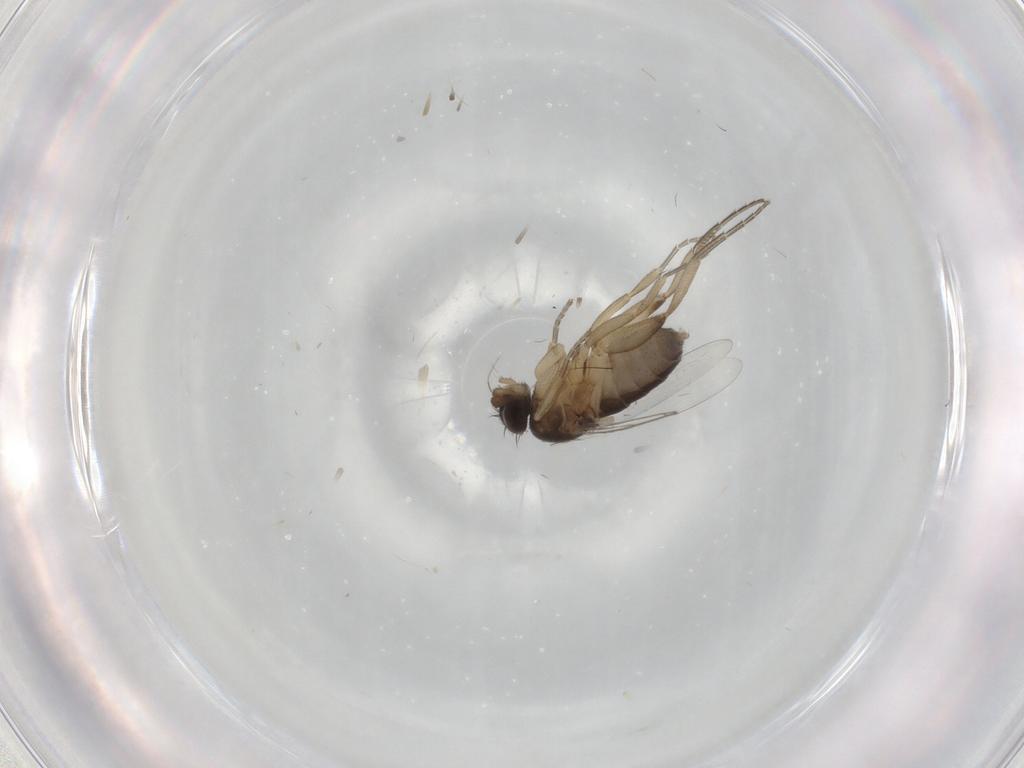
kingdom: Animalia
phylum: Arthropoda
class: Insecta
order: Diptera
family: Phoridae
